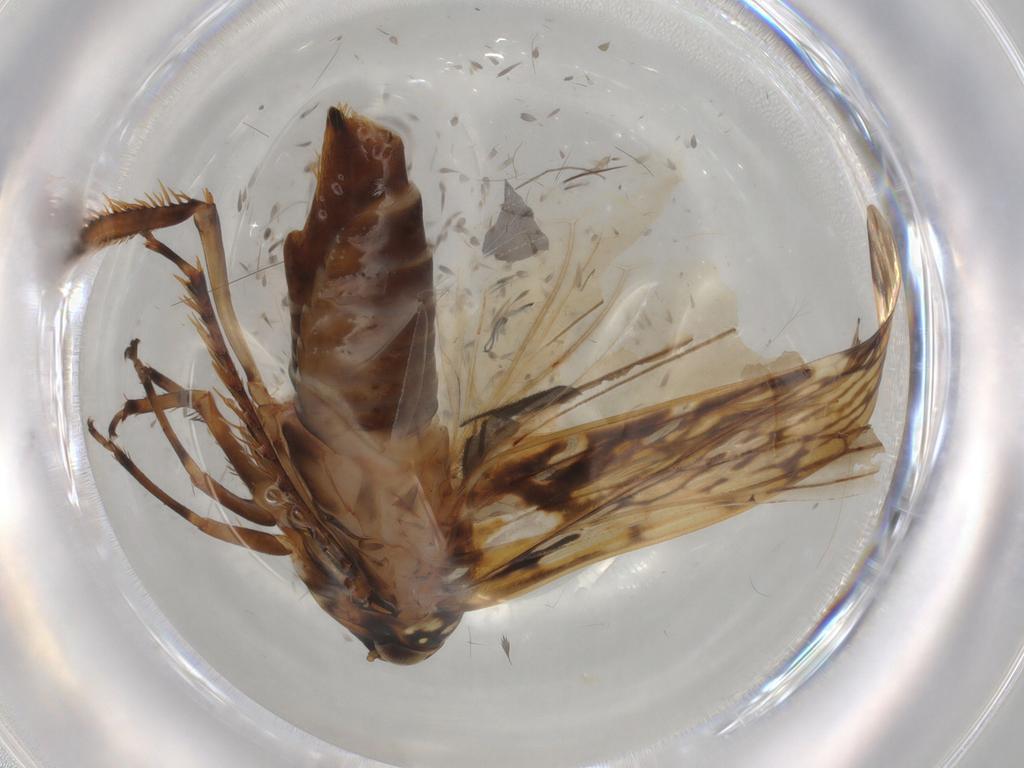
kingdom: Animalia
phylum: Arthropoda
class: Insecta
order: Hemiptera
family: Cicadellidae
